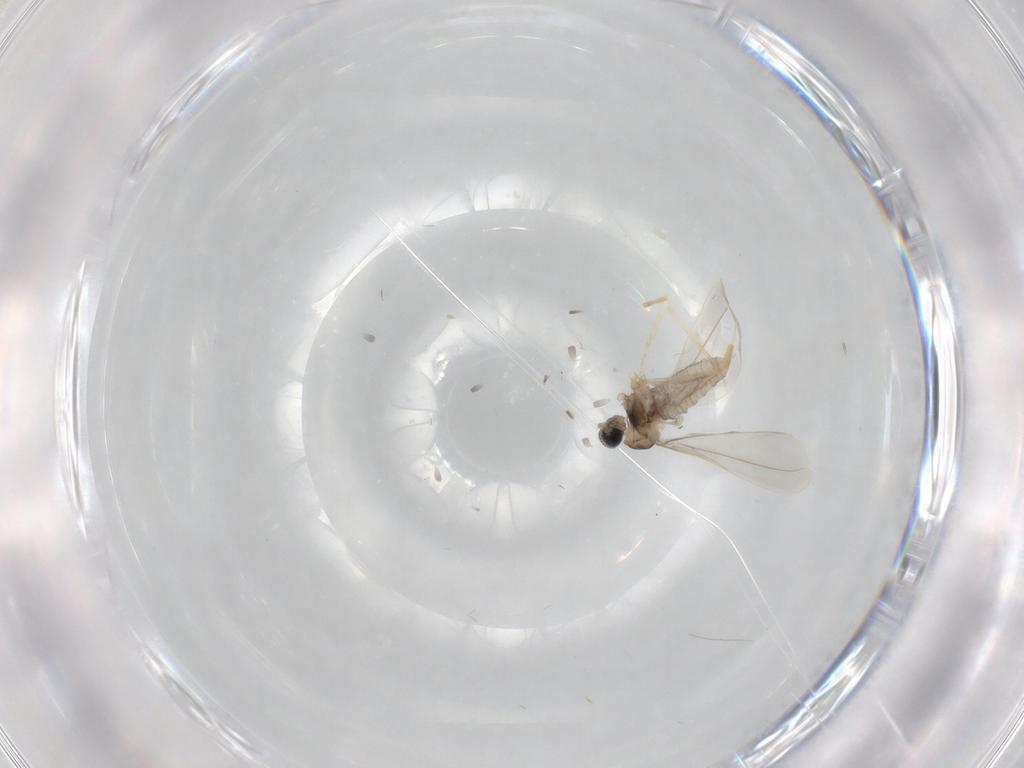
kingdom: Animalia
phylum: Arthropoda
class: Insecta
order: Diptera
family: Cecidomyiidae
